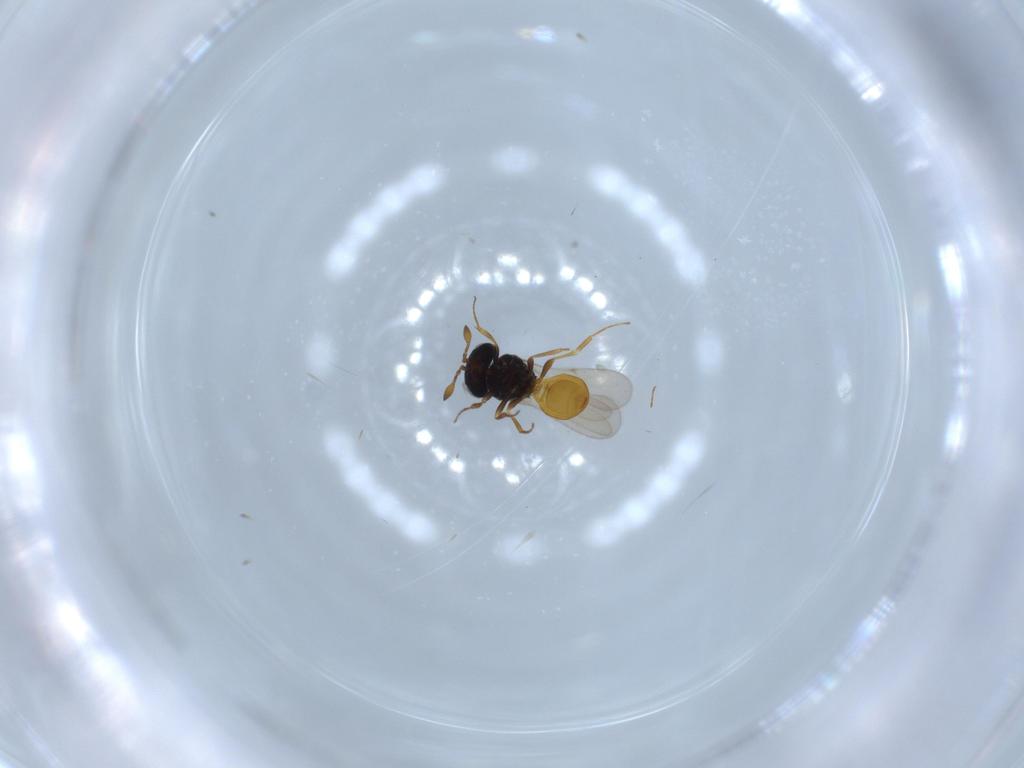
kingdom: Animalia
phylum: Arthropoda
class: Insecta
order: Hymenoptera
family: Scelionidae
